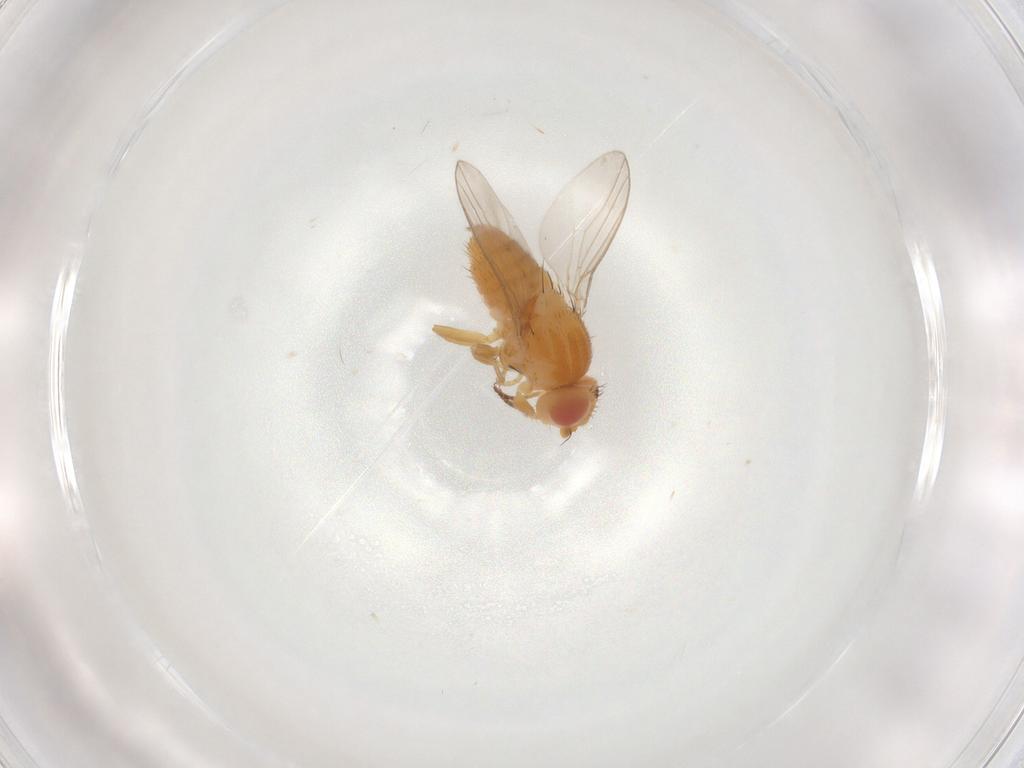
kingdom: Animalia
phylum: Arthropoda
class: Insecta
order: Diptera
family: Chloropidae
